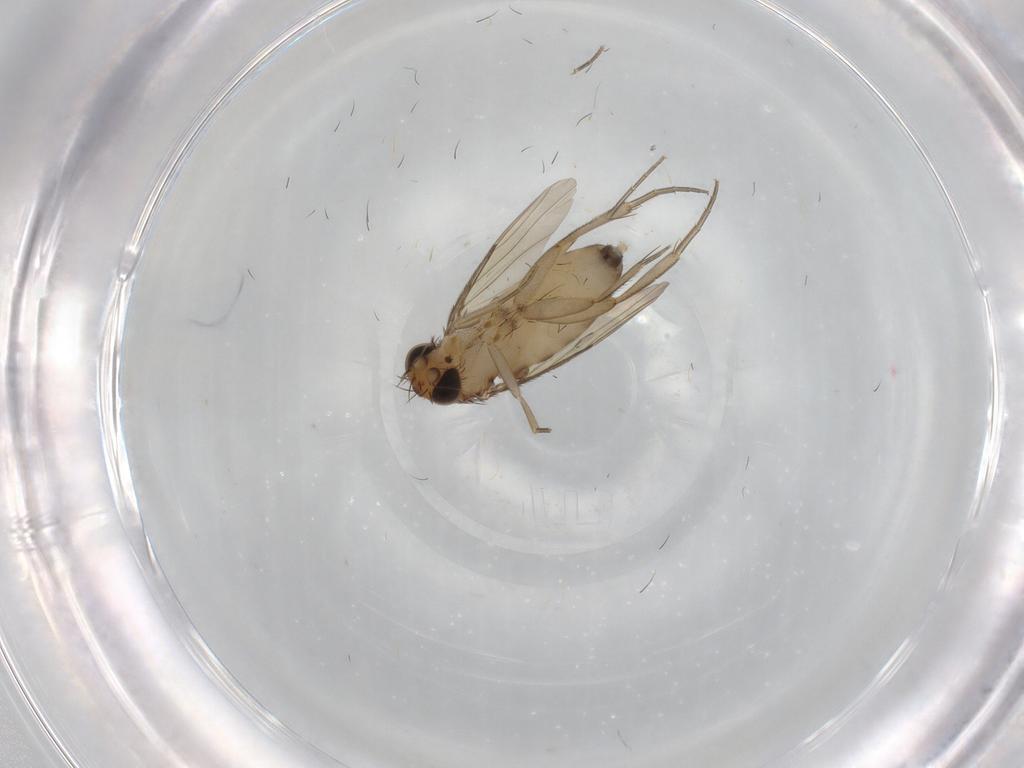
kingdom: Animalia
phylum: Arthropoda
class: Insecta
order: Diptera
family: Phoridae
